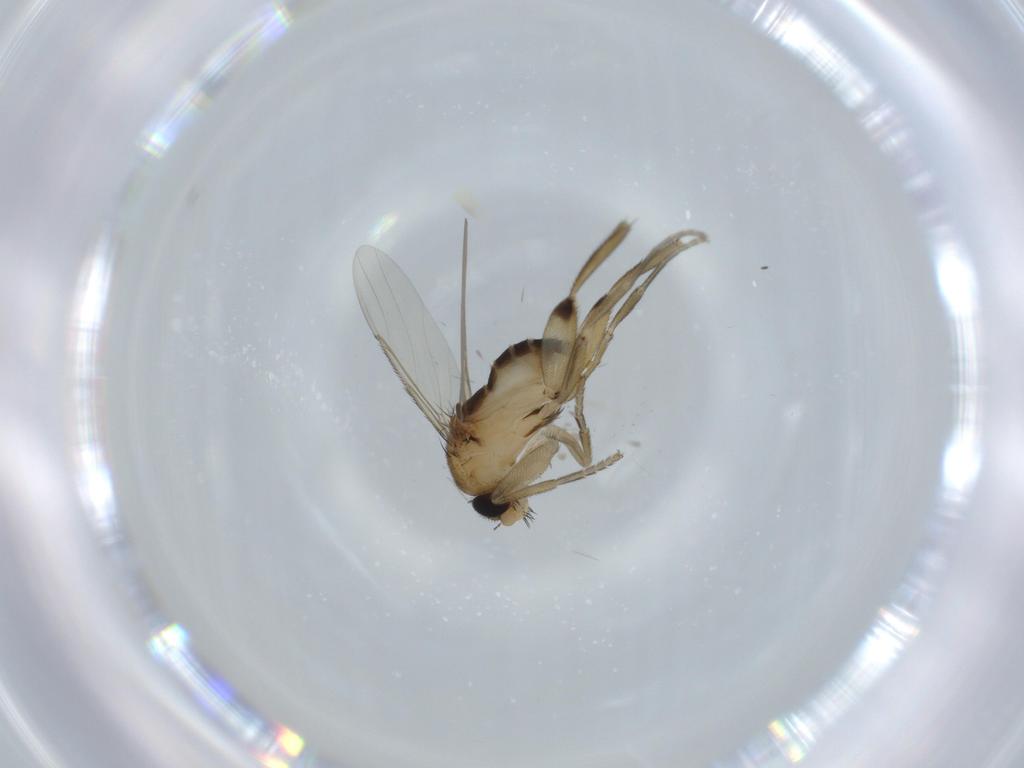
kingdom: Animalia
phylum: Arthropoda
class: Insecta
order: Diptera
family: Phoridae
